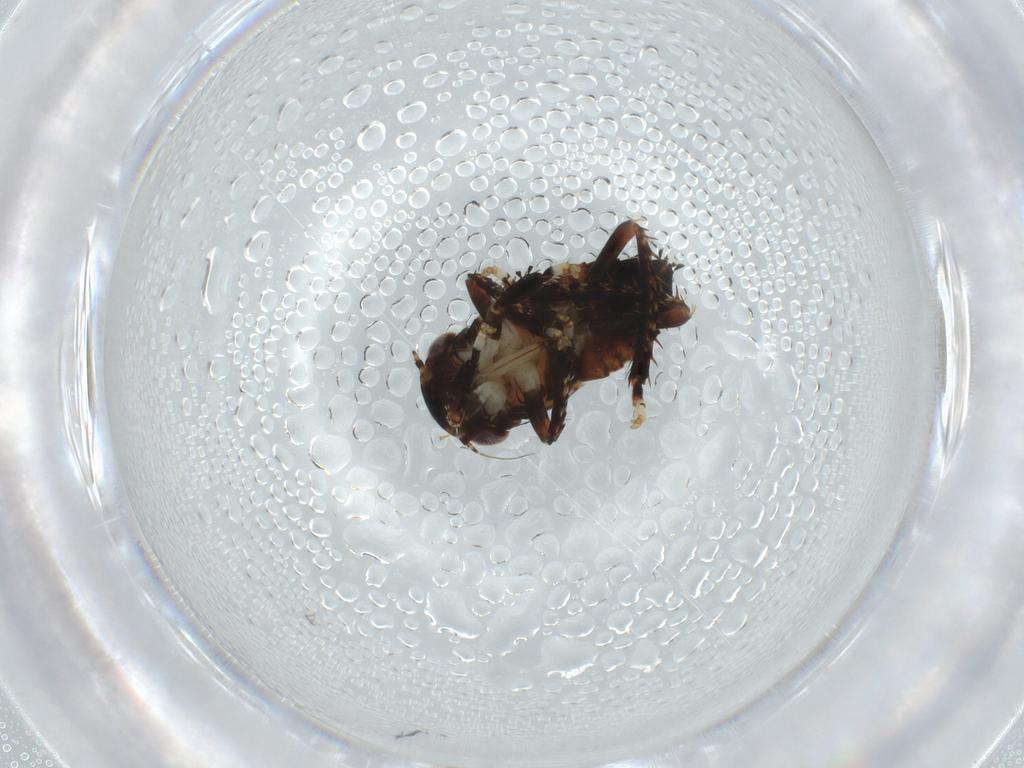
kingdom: Animalia
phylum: Arthropoda
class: Insecta
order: Hemiptera
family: Cicadellidae
